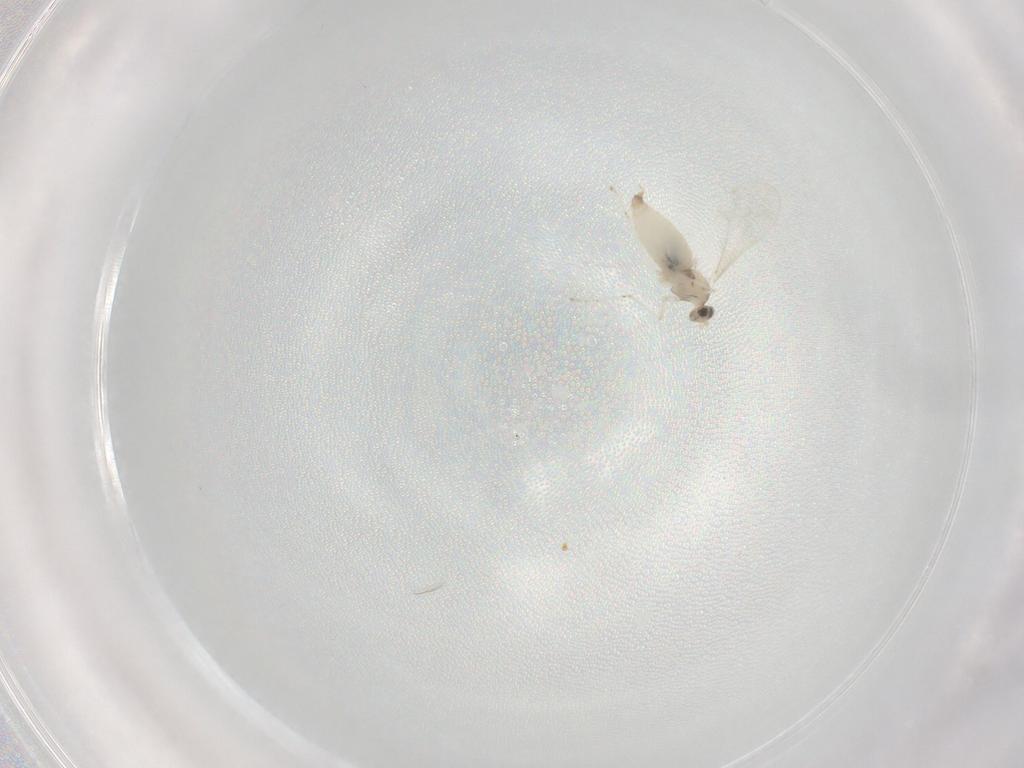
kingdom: Animalia
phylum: Arthropoda
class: Insecta
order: Diptera
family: Cecidomyiidae
